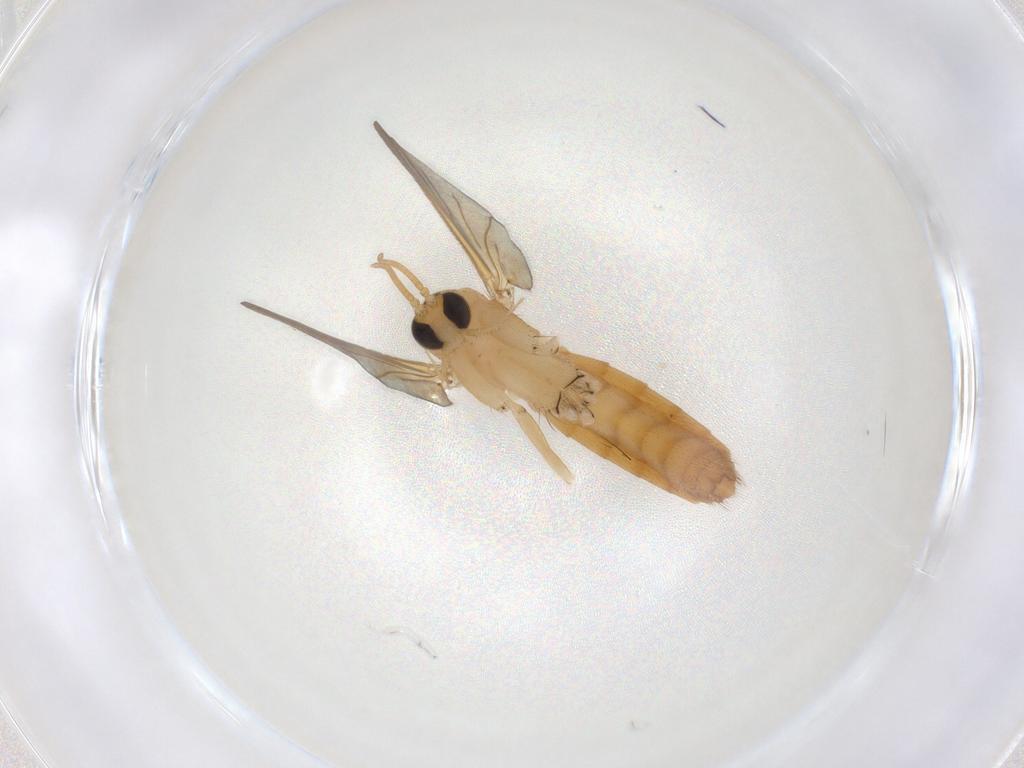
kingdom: Animalia
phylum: Arthropoda
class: Insecta
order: Diptera
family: Mycetophilidae
